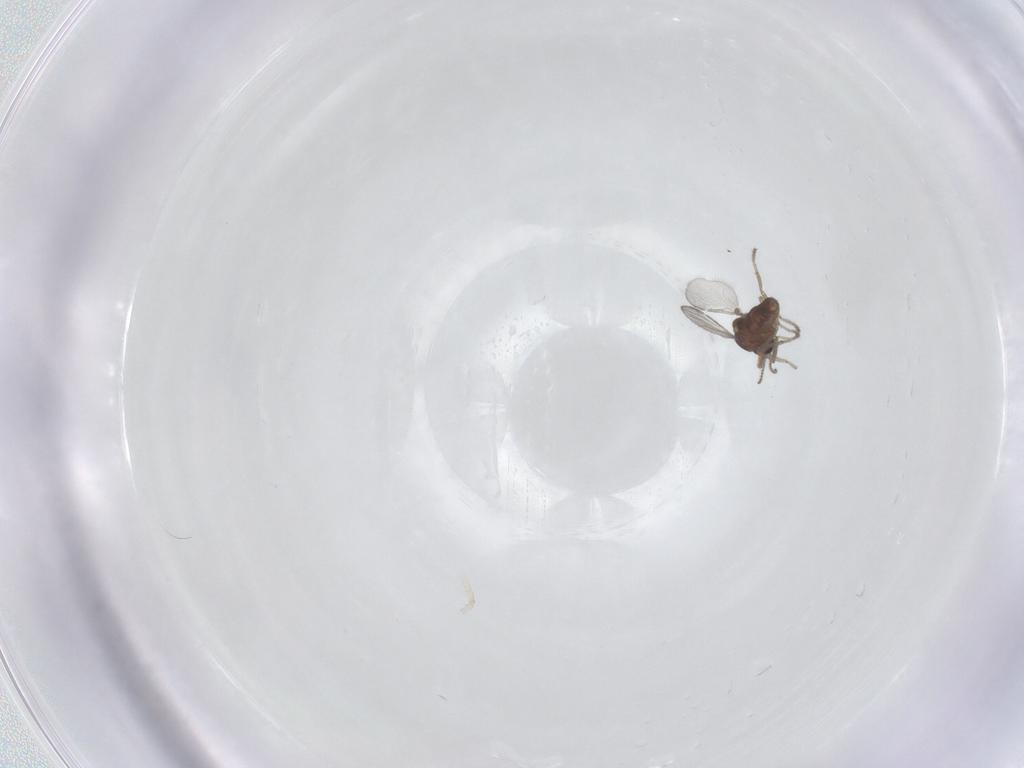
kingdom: Animalia
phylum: Arthropoda
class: Insecta
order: Diptera
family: Ceratopogonidae
